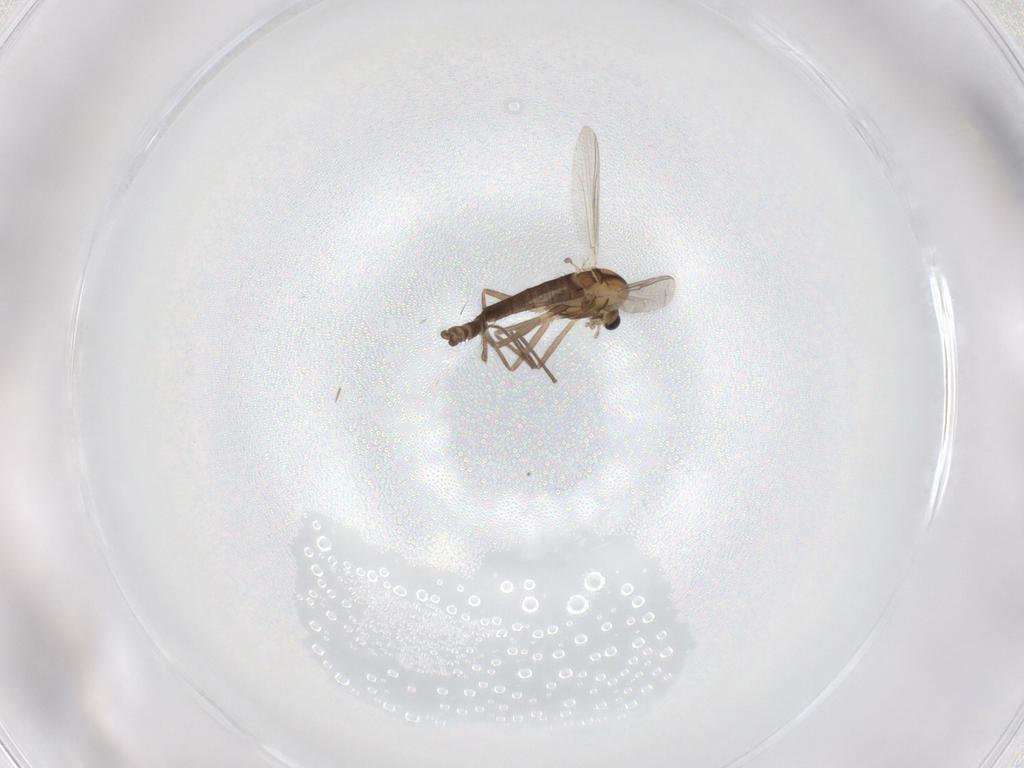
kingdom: Animalia
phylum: Arthropoda
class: Insecta
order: Diptera
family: Chironomidae
